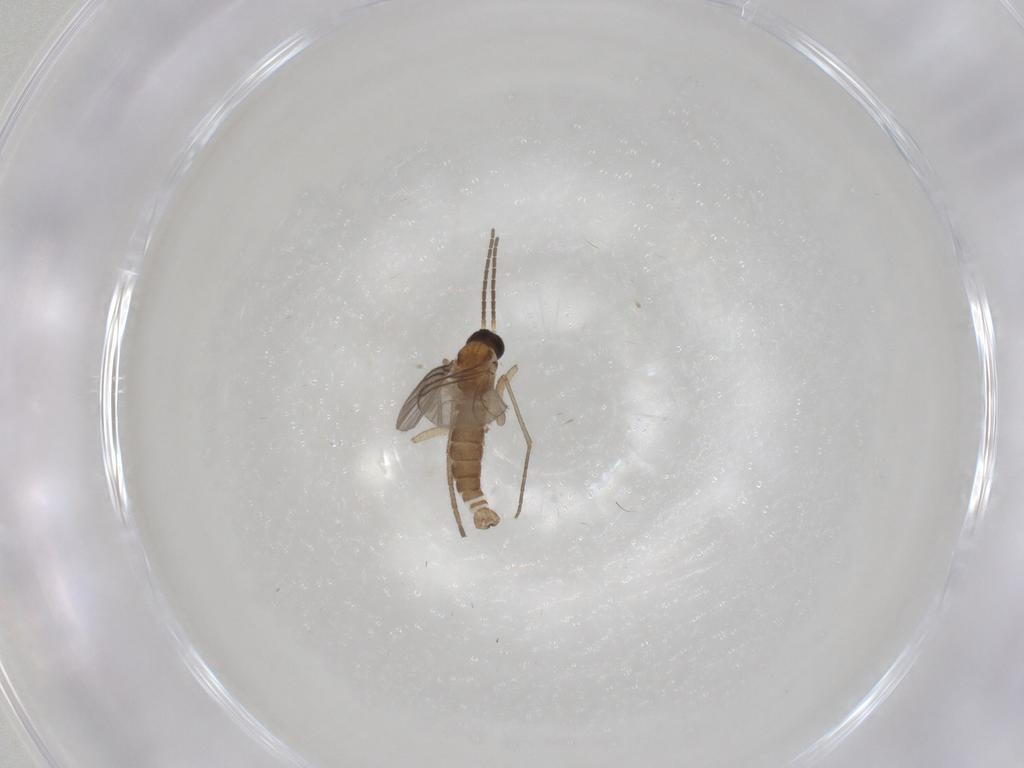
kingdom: Animalia
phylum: Arthropoda
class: Insecta
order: Diptera
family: Sciaridae
